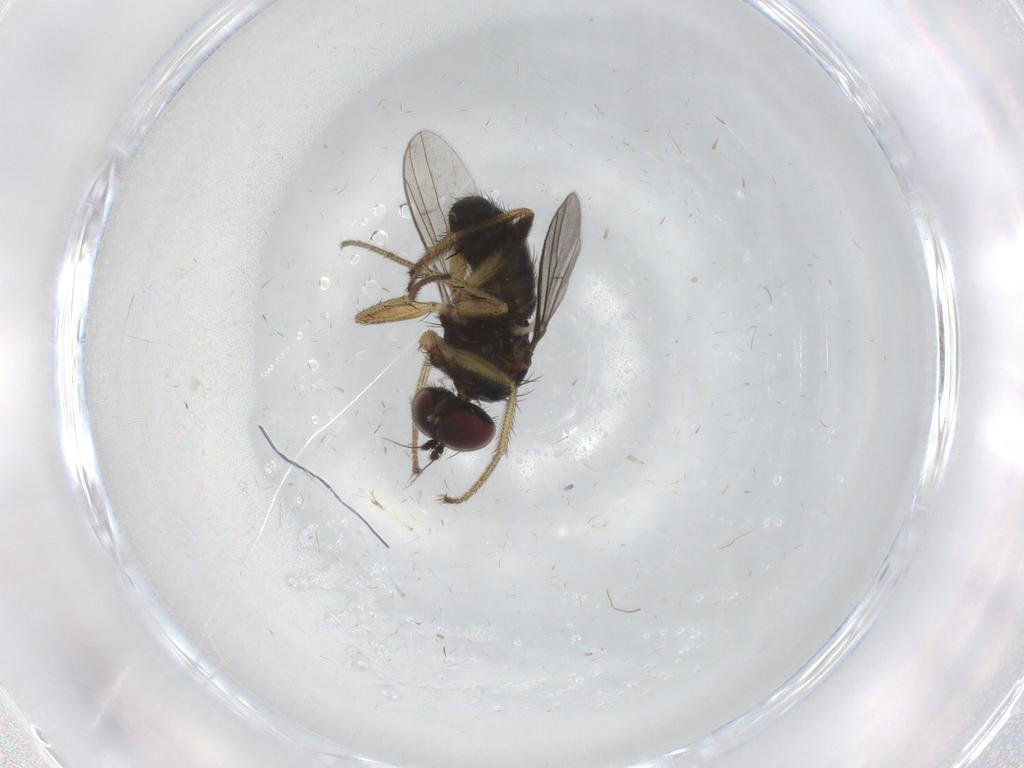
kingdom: Animalia
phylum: Arthropoda
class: Insecta
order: Diptera
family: Dolichopodidae
